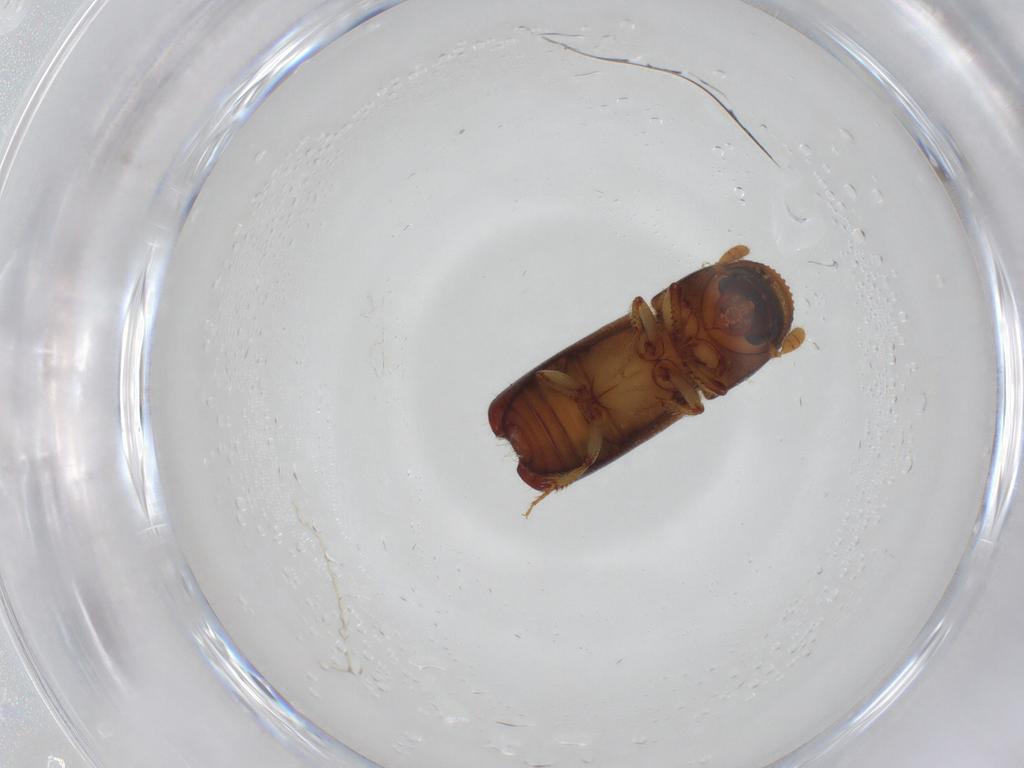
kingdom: Animalia
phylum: Arthropoda
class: Insecta
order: Coleoptera
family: Curculionidae
